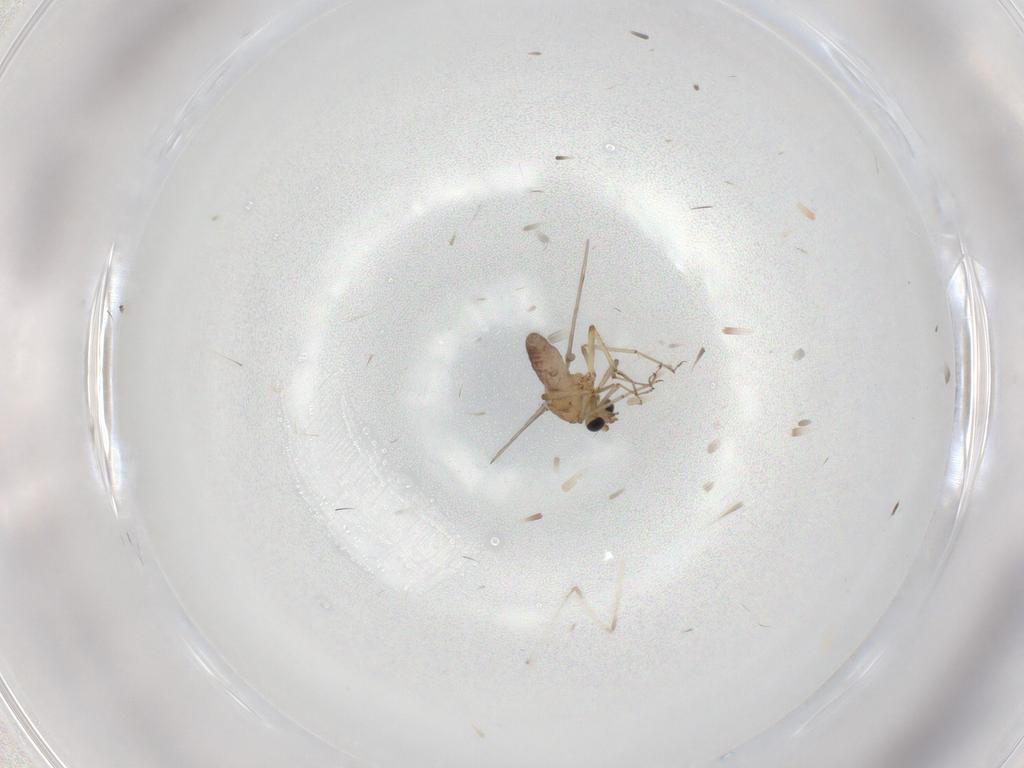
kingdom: Animalia
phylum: Arthropoda
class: Insecta
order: Diptera
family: Sciaridae
